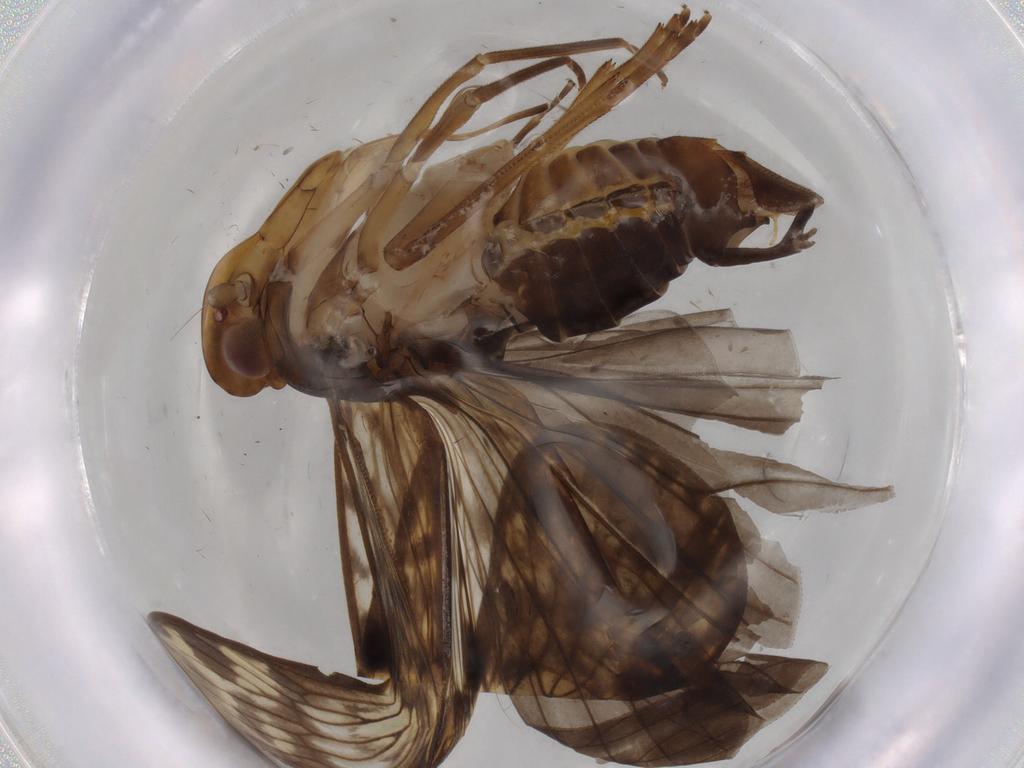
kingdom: Animalia
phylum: Arthropoda
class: Insecta
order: Hemiptera
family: Cixiidae
